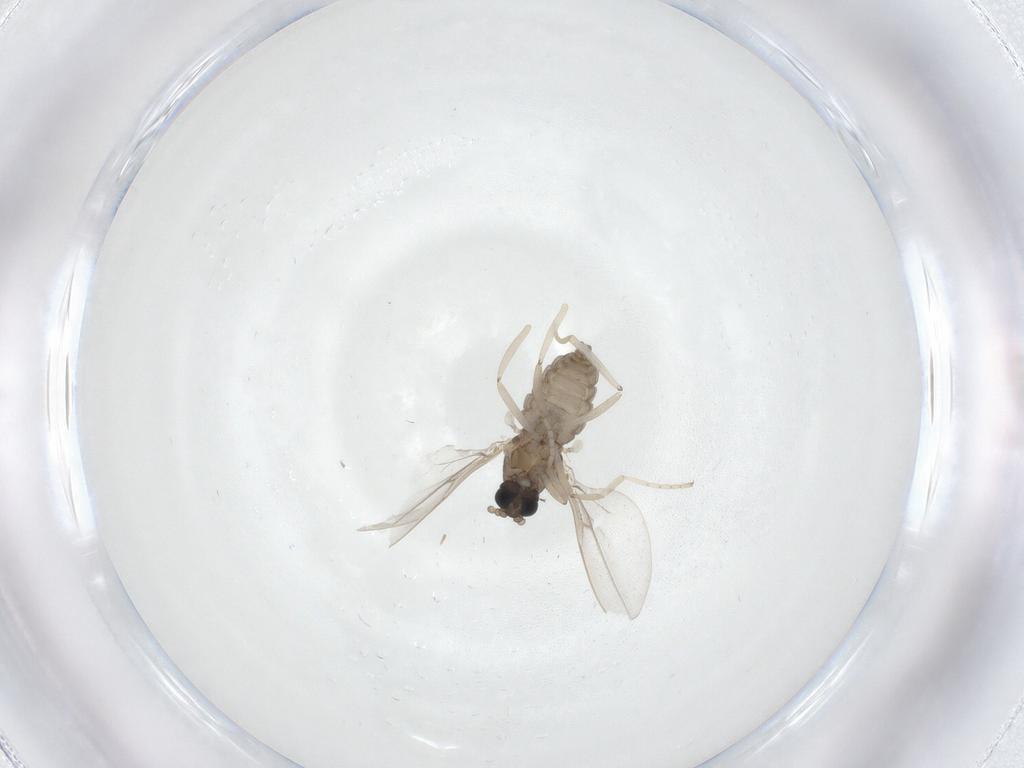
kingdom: Animalia
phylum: Arthropoda
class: Insecta
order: Diptera
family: Cecidomyiidae
